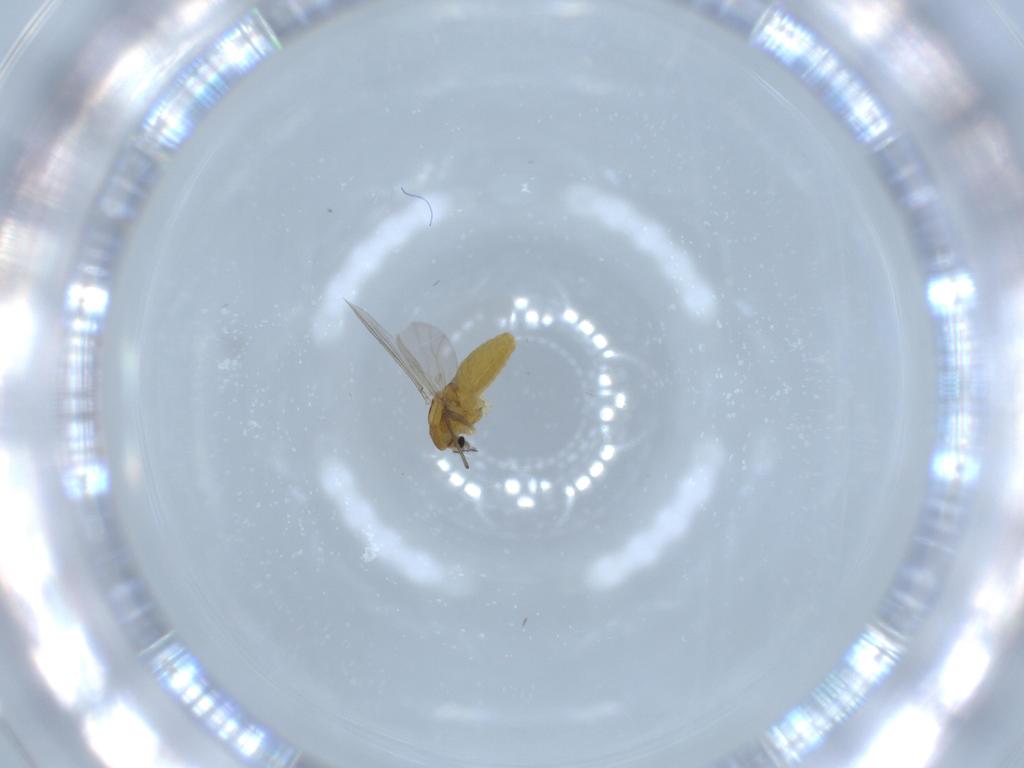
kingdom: Animalia
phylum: Arthropoda
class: Insecta
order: Diptera
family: Chironomidae
